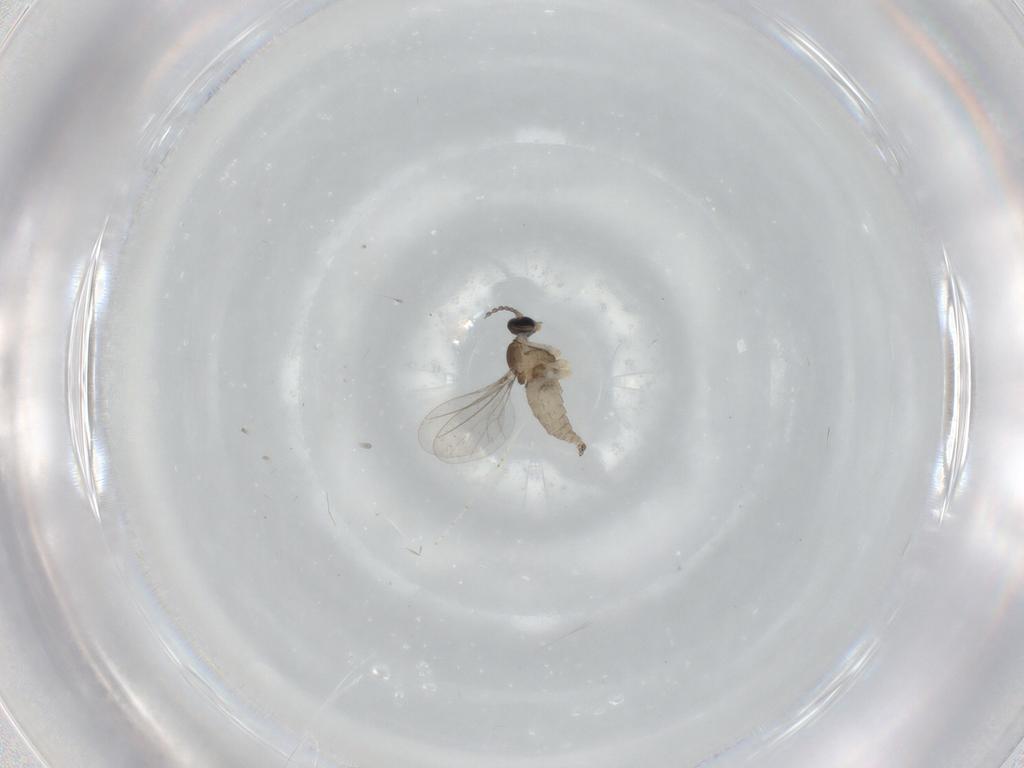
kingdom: Animalia
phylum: Arthropoda
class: Insecta
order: Diptera
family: Cecidomyiidae
